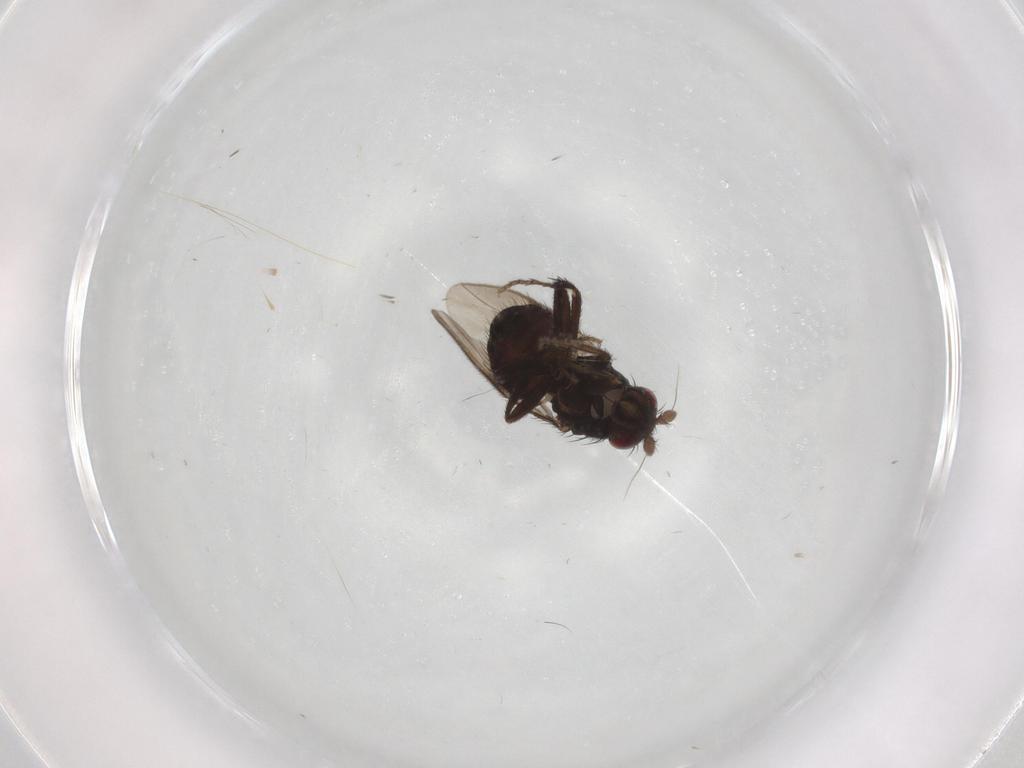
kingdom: Animalia
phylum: Arthropoda
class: Insecta
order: Diptera
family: Sphaeroceridae
